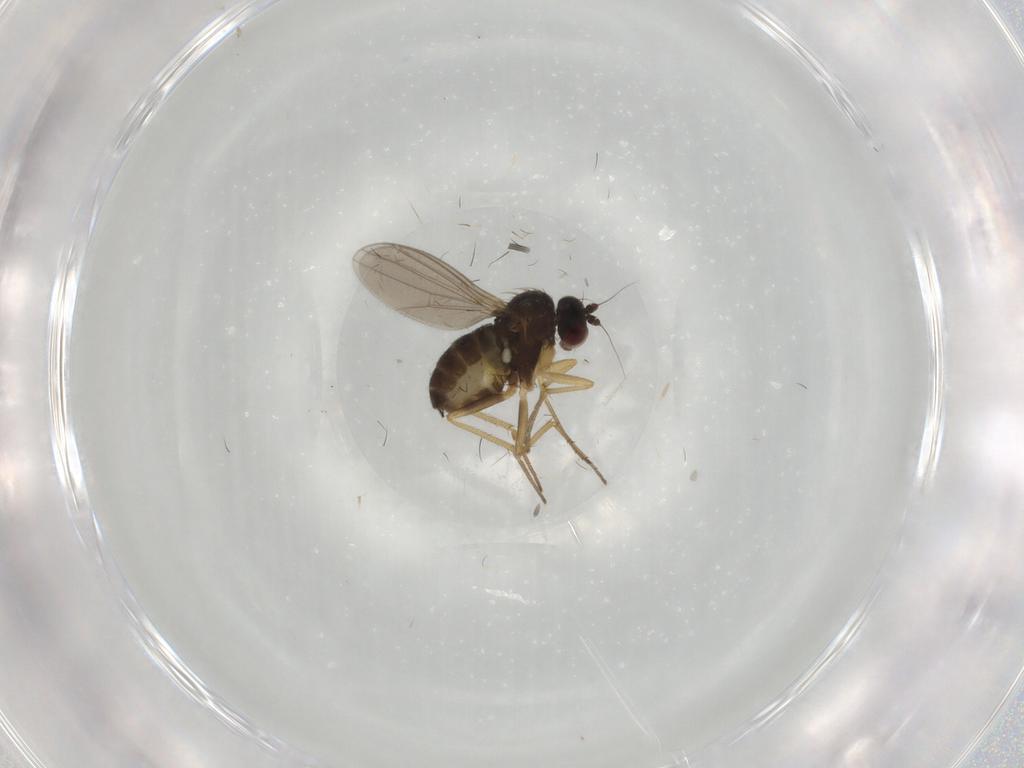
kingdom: Animalia
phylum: Arthropoda
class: Insecta
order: Diptera
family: Dolichopodidae
